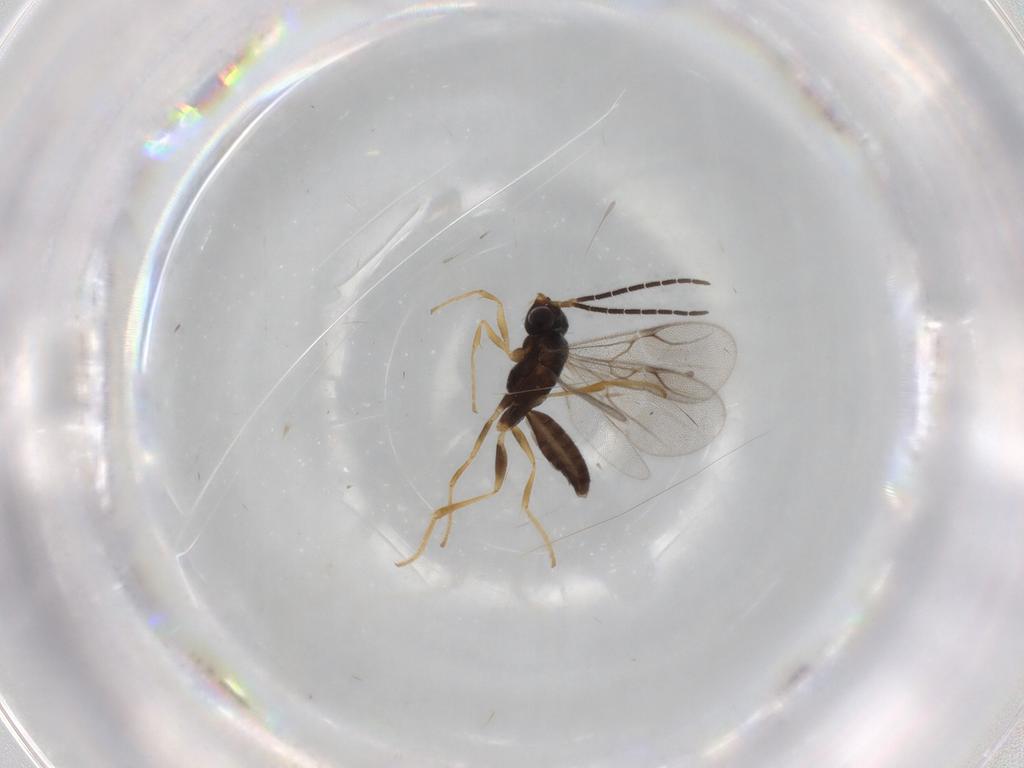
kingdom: Animalia
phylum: Arthropoda
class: Insecta
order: Hymenoptera
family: Dryinidae
